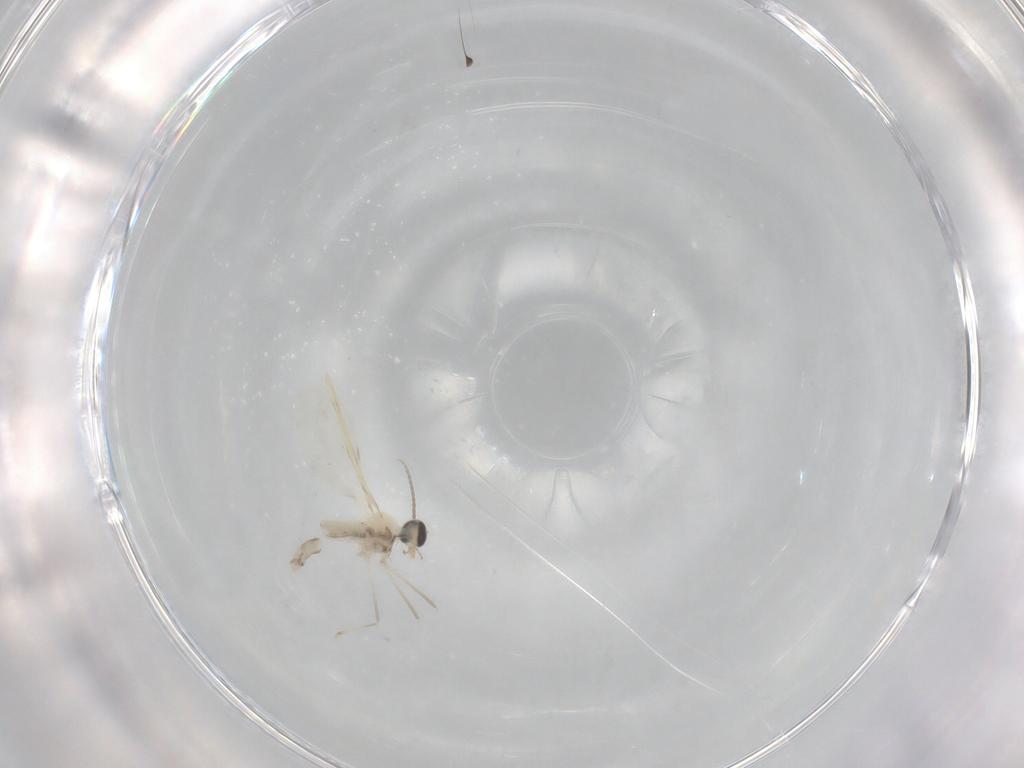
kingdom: Animalia
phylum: Arthropoda
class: Insecta
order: Diptera
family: Cecidomyiidae
